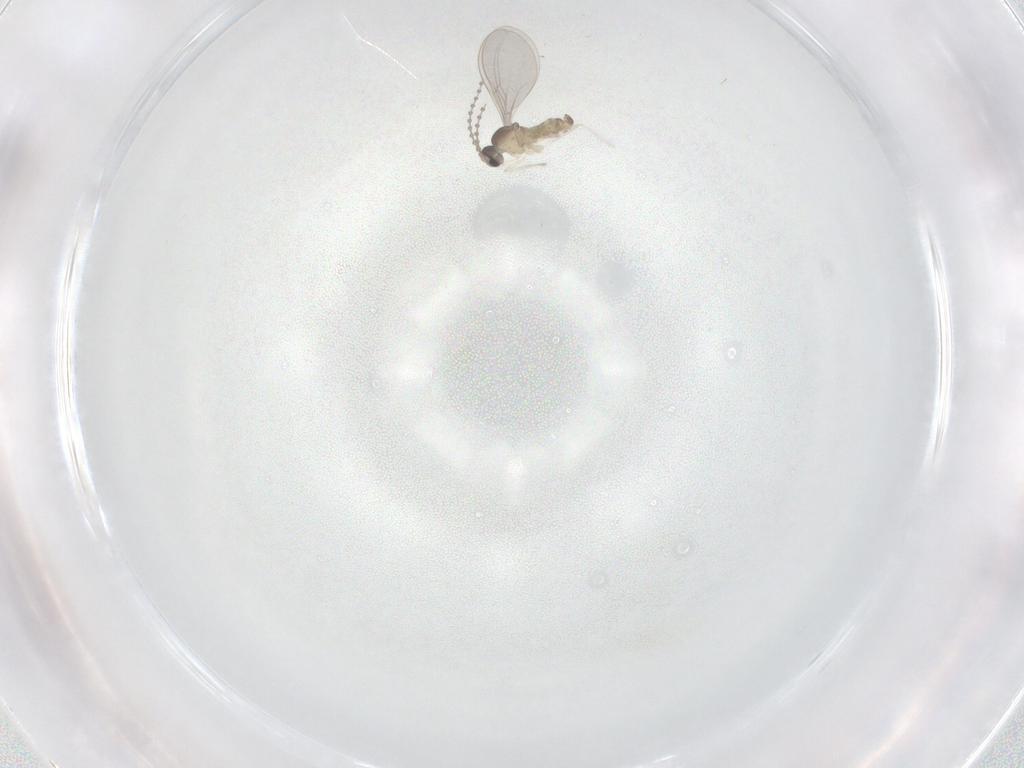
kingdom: Animalia
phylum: Arthropoda
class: Insecta
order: Diptera
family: Cecidomyiidae
